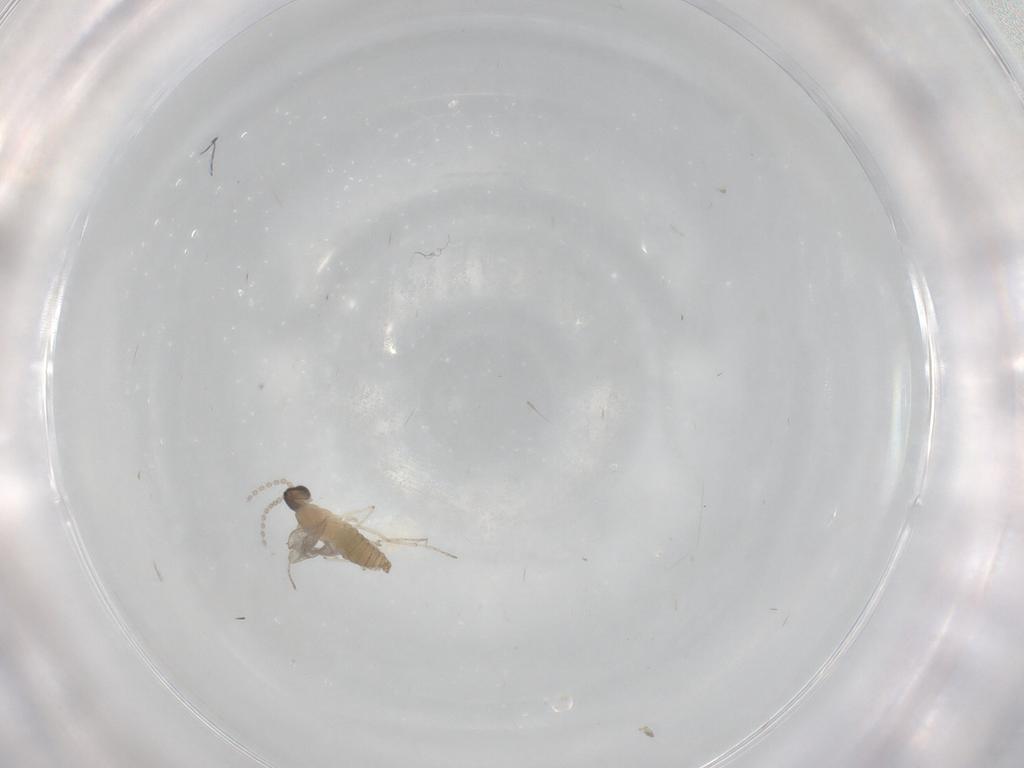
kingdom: Animalia
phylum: Arthropoda
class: Insecta
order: Diptera
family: Cecidomyiidae
